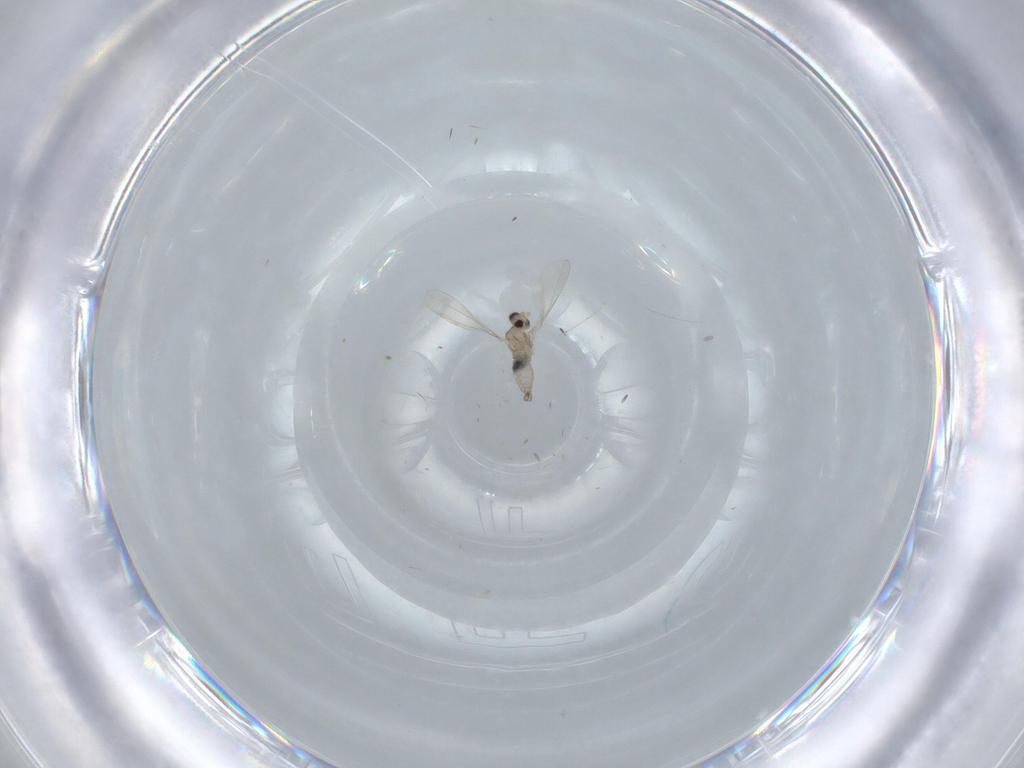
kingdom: Animalia
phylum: Arthropoda
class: Insecta
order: Diptera
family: Cecidomyiidae
